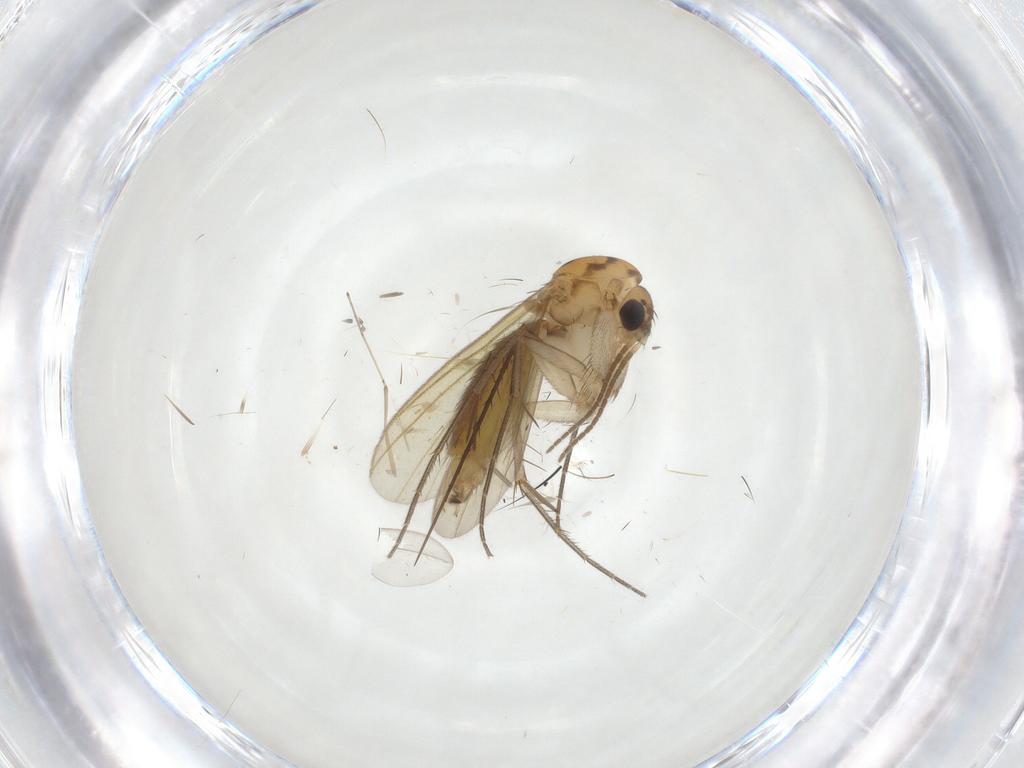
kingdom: Animalia
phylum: Arthropoda
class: Insecta
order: Diptera
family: Mycetophilidae
